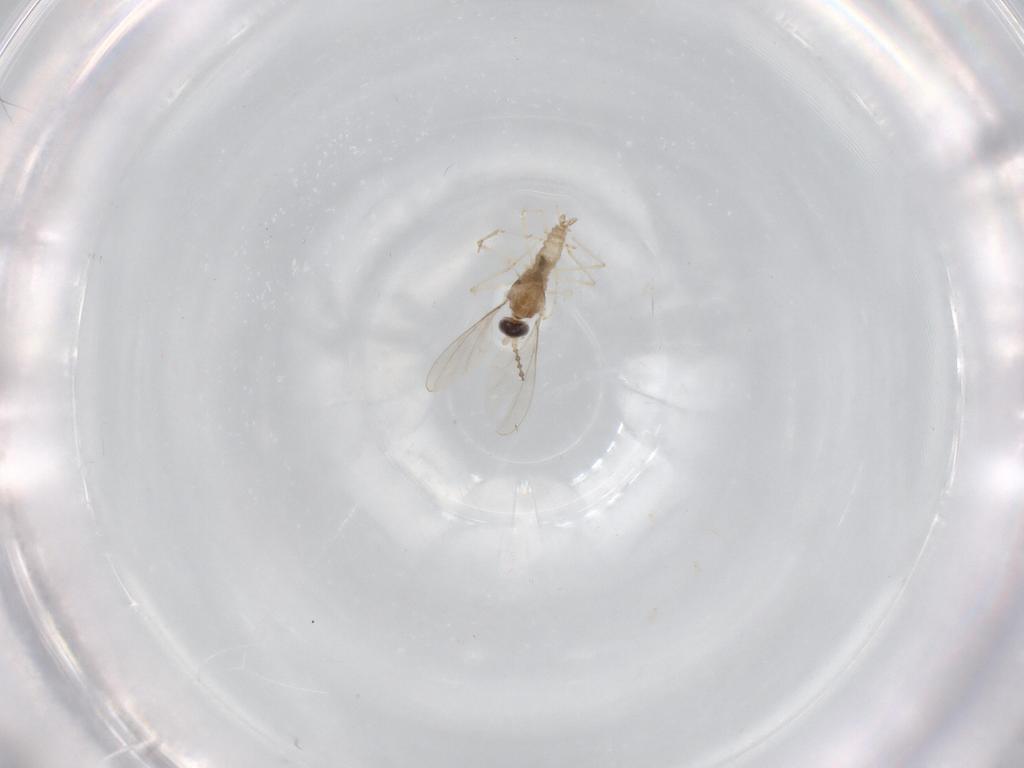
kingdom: Animalia
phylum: Arthropoda
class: Insecta
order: Diptera
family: Cecidomyiidae
